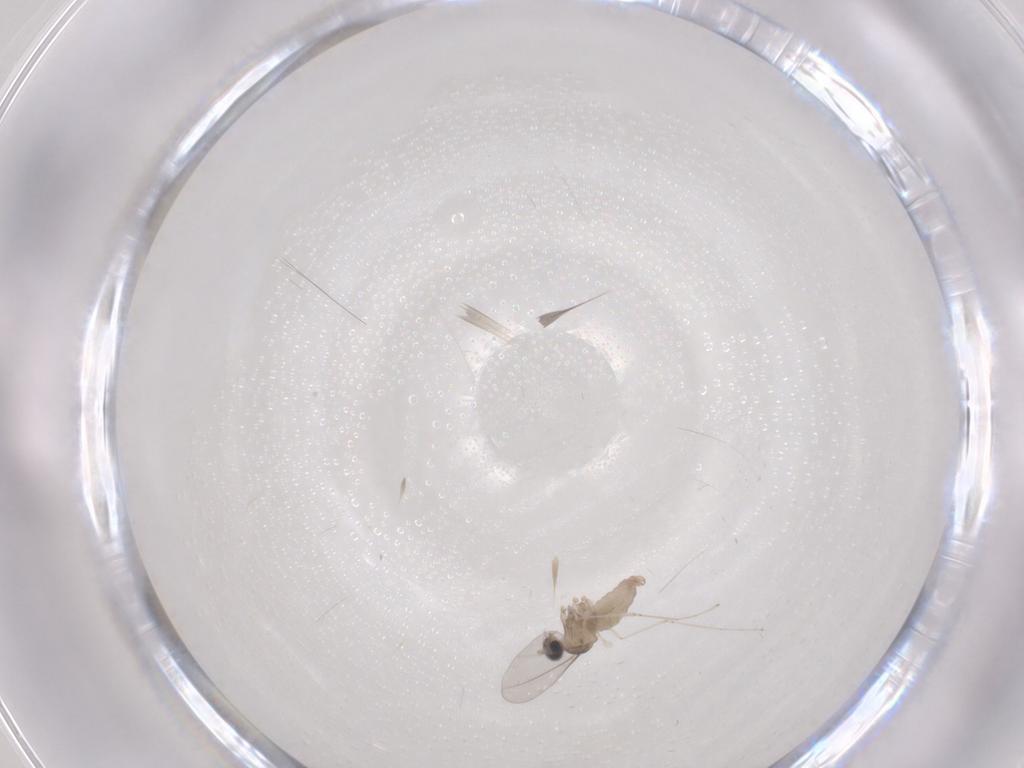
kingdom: Animalia
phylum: Arthropoda
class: Insecta
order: Diptera
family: Cecidomyiidae
